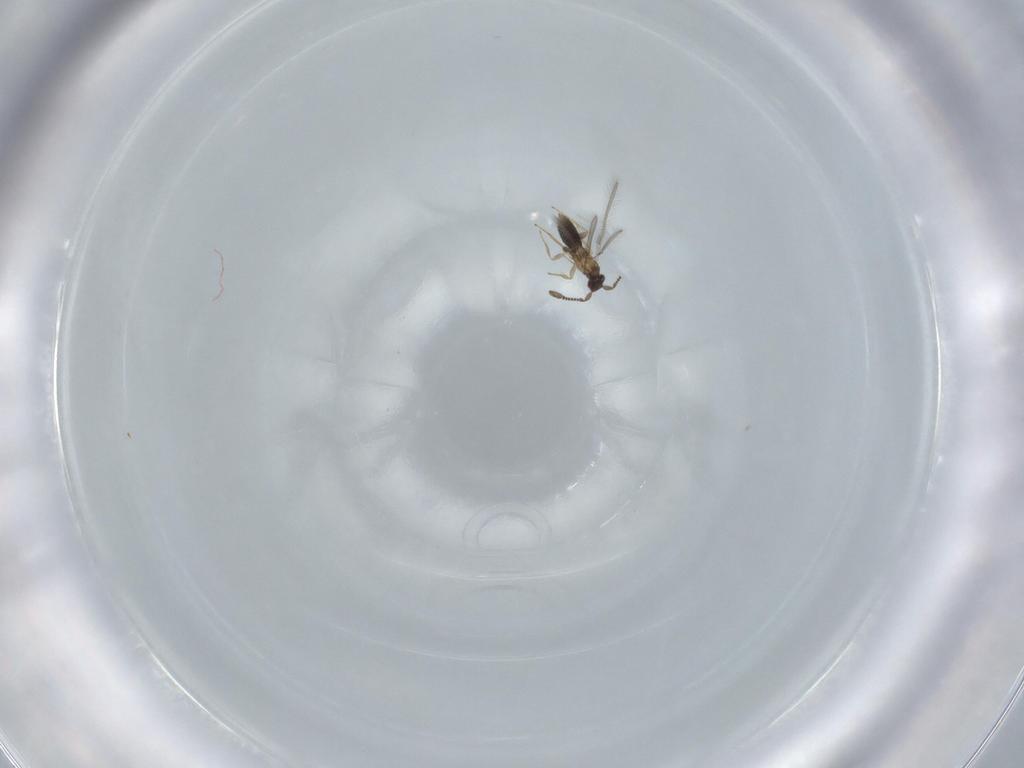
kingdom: Animalia
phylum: Arthropoda
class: Insecta
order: Hymenoptera
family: Mymaridae
